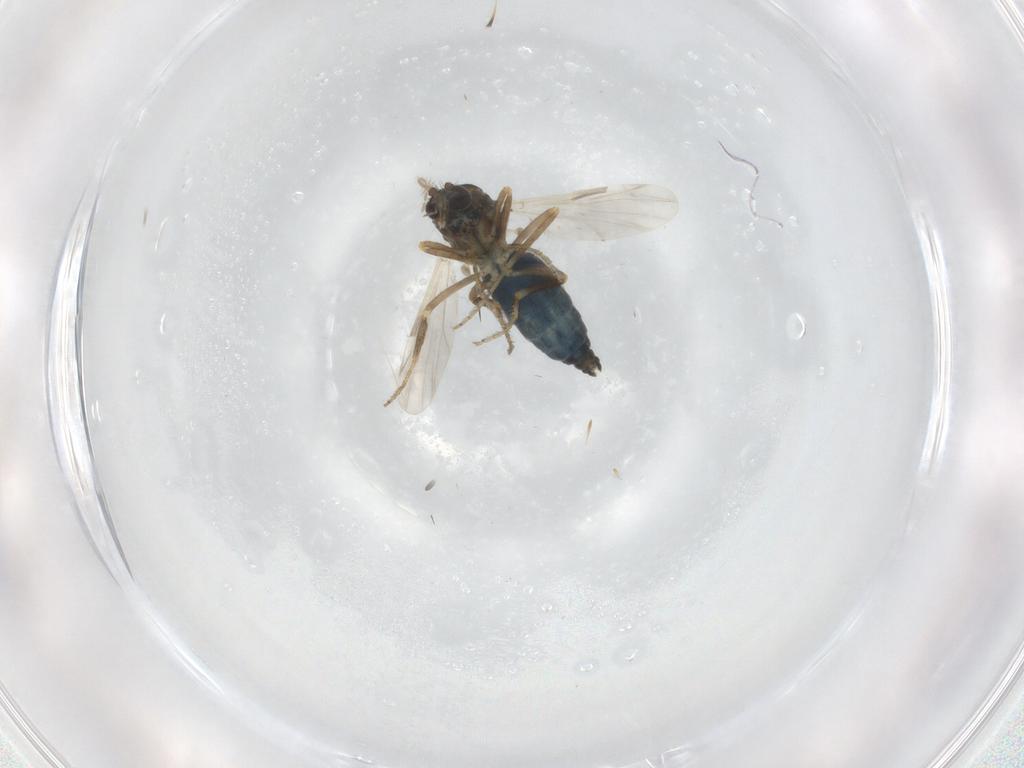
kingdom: Animalia
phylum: Arthropoda
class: Insecta
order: Diptera
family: Ceratopogonidae
